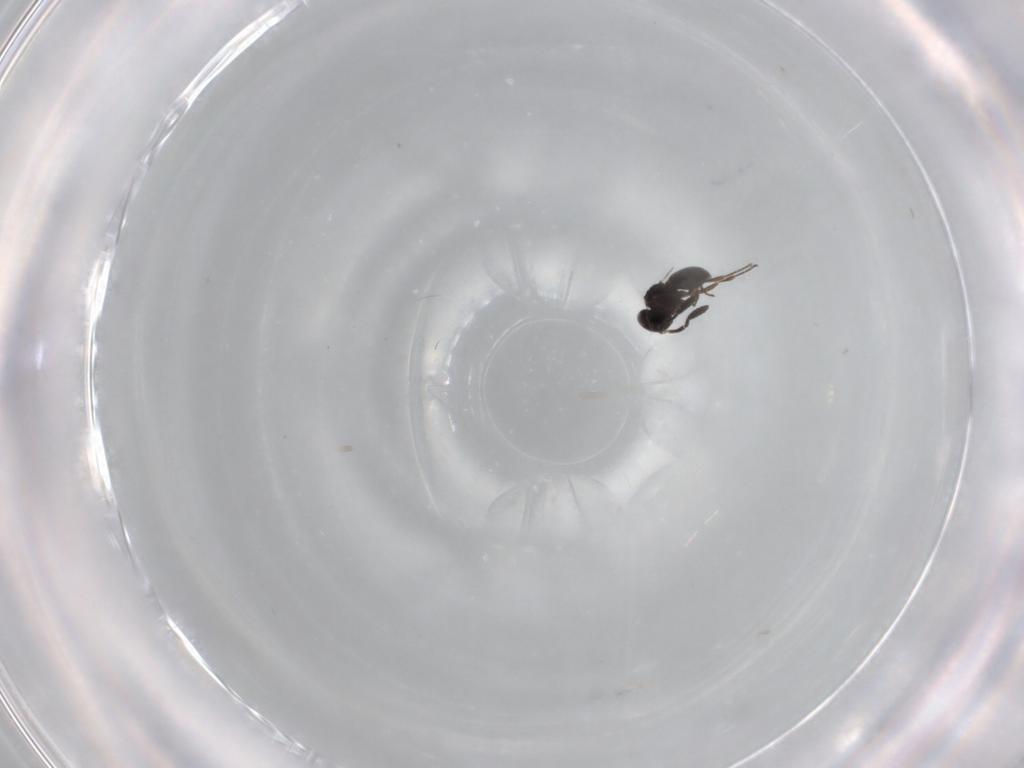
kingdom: Animalia
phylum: Arthropoda
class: Insecta
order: Hymenoptera
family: Scelionidae
